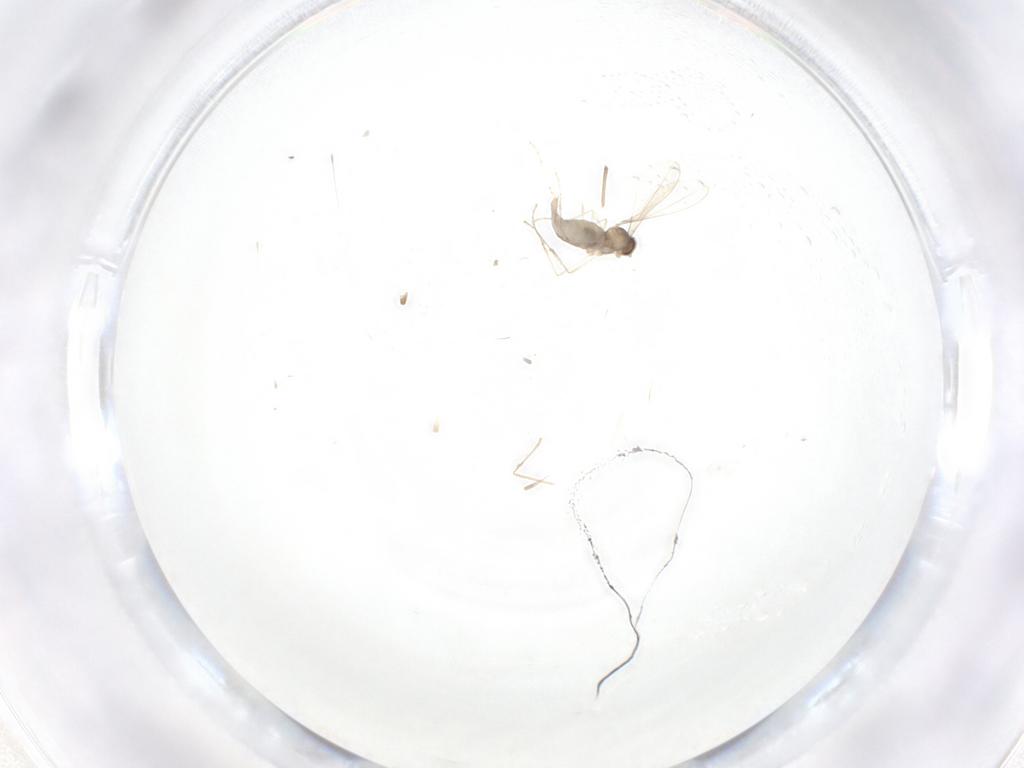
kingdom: Animalia
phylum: Arthropoda
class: Insecta
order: Diptera
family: Cecidomyiidae
